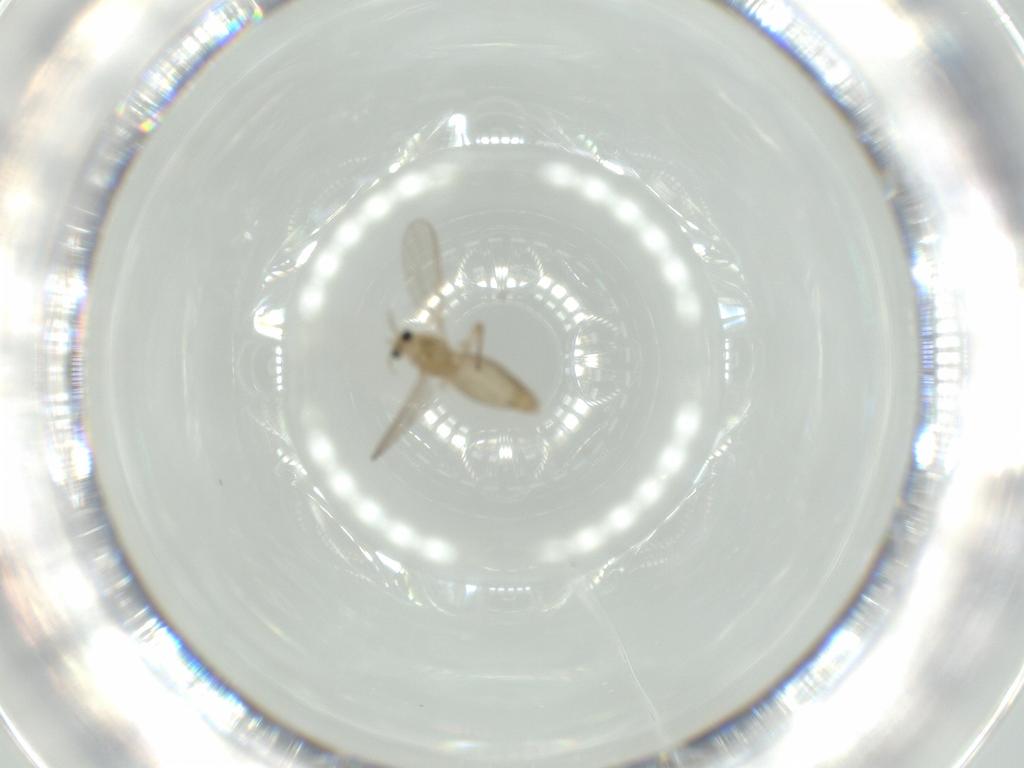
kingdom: Animalia
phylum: Arthropoda
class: Insecta
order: Diptera
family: Chironomidae
